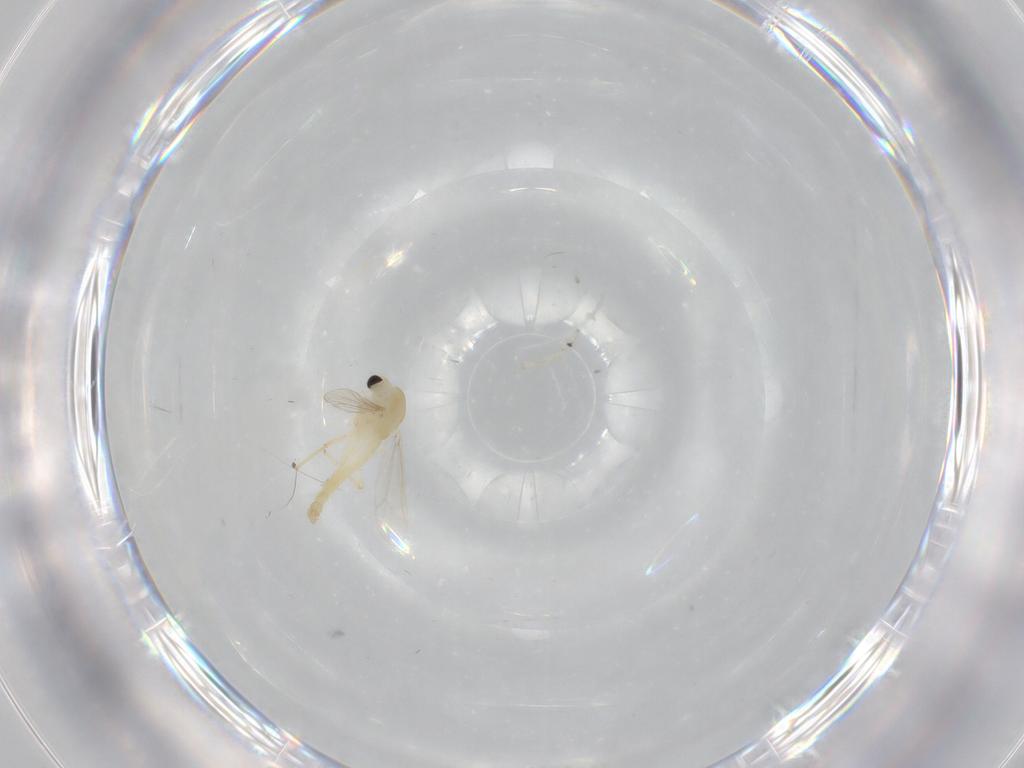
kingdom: Animalia
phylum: Arthropoda
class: Insecta
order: Diptera
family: Chironomidae
